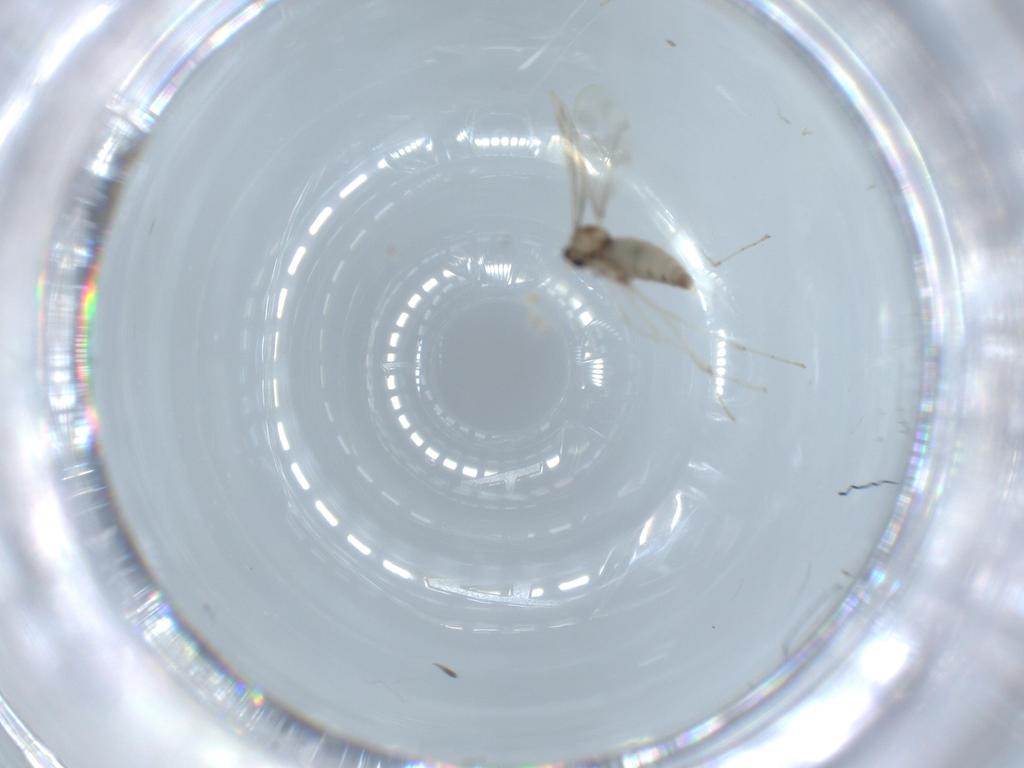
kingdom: Animalia
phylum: Arthropoda
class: Insecta
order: Diptera
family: Cecidomyiidae
